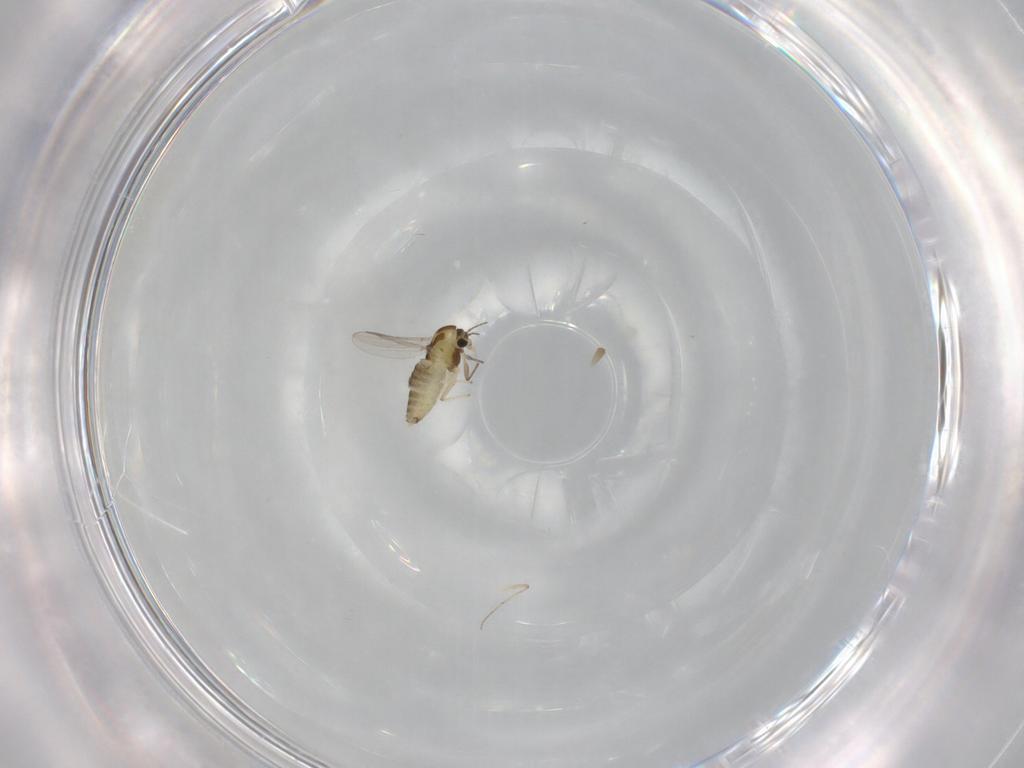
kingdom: Animalia
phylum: Arthropoda
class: Insecta
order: Diptera
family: Chironomidae
